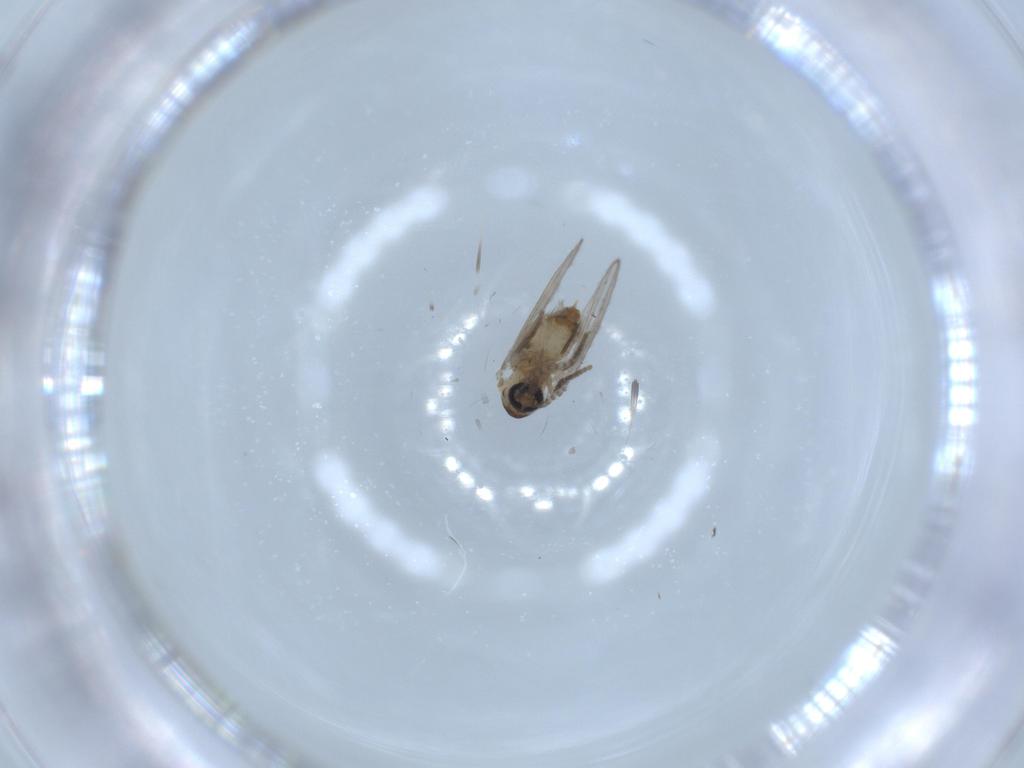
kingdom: Animalia
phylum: Arthropoda
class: Insecta
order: Diptera
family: Psychodidae
